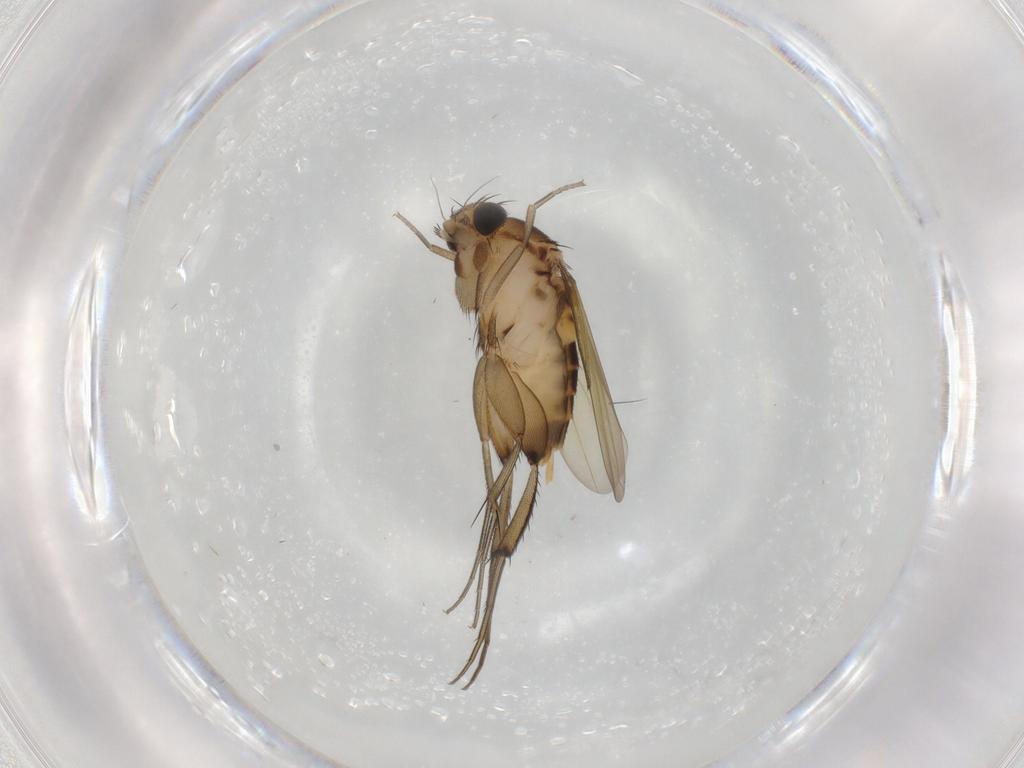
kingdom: Animalia
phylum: Arthropoda
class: Insecta
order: Diptera
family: Phoridae
